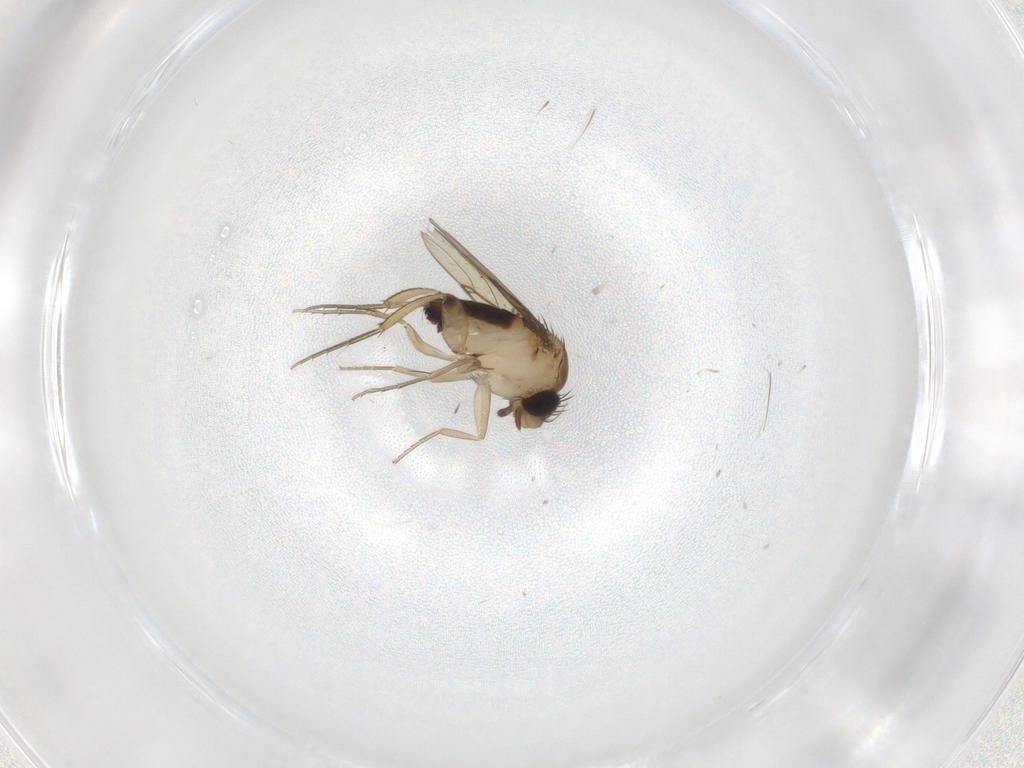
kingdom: Animalia
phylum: Arthropoda
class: Insecta
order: Diptera
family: Phoridae
